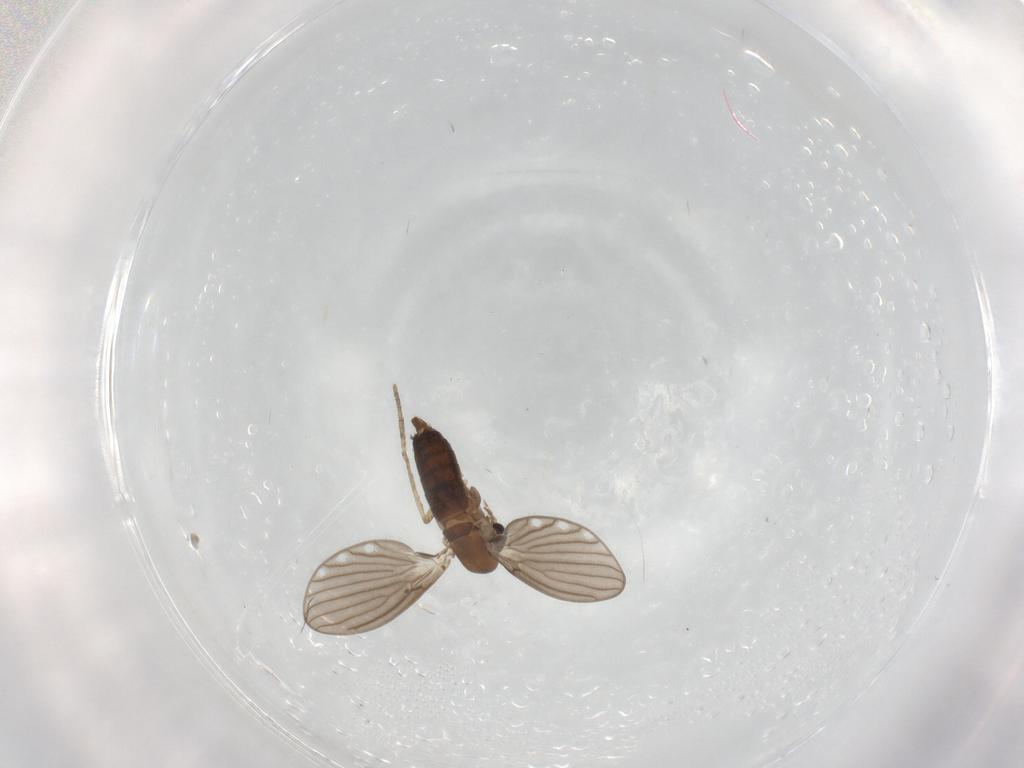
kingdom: Animalia
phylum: Arthropoda
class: Insecta
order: Diptera
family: Psychodidae
